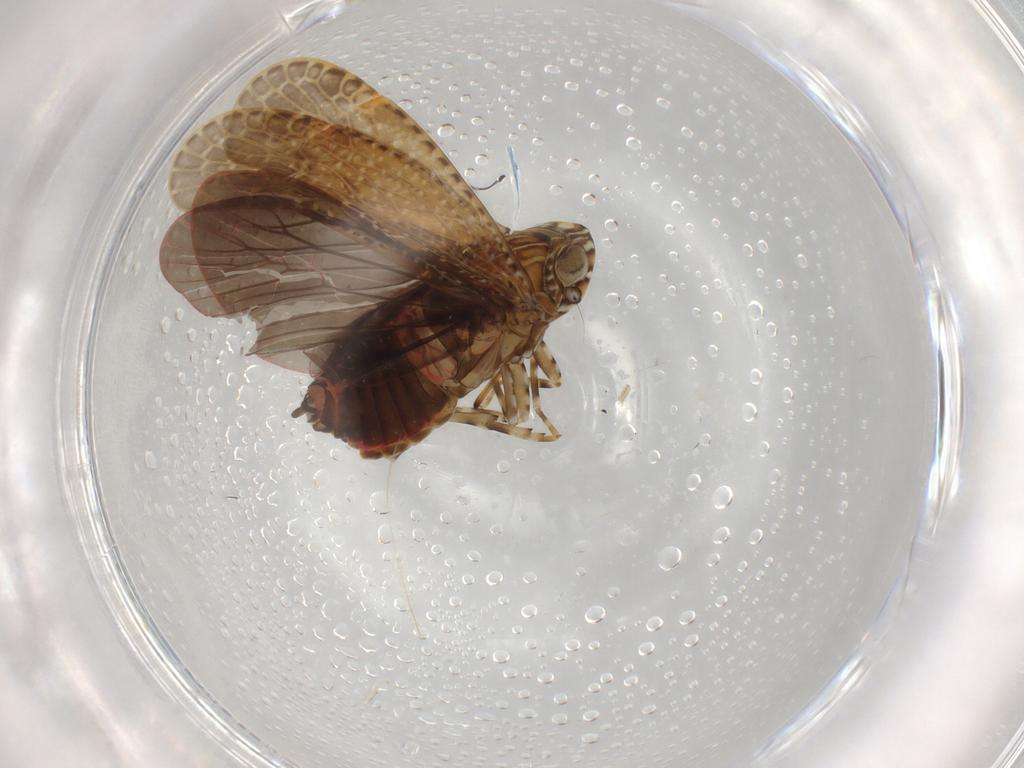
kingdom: Animalia
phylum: Arthropoda
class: Insecta
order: Hemiptera
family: Achilidae
